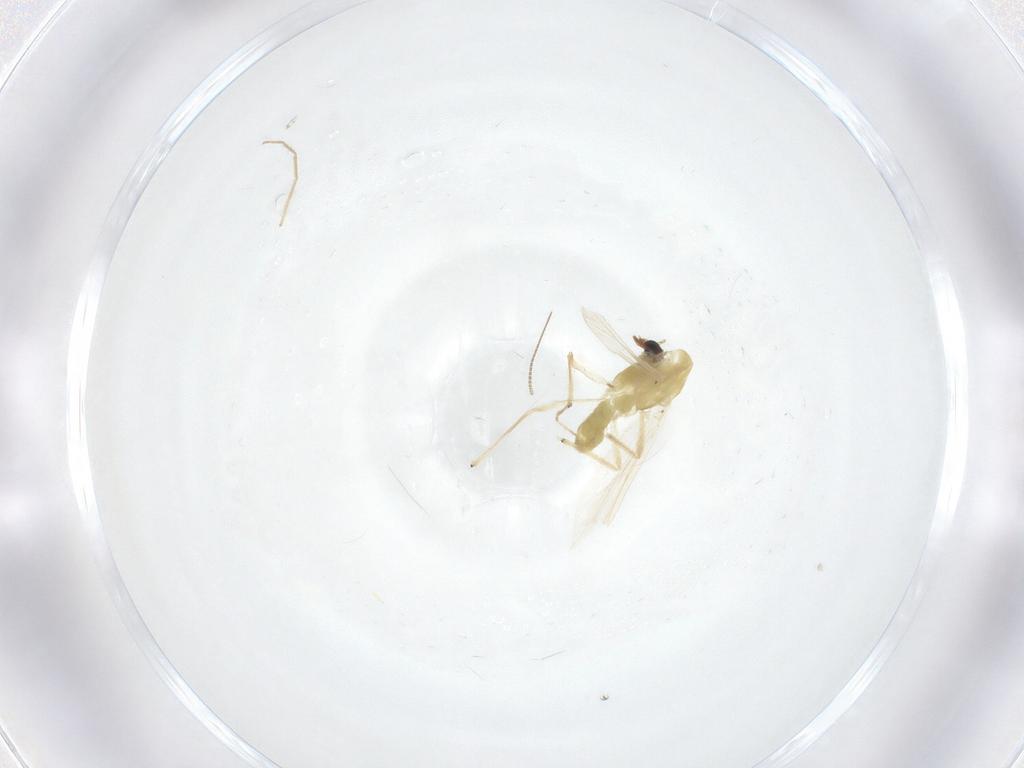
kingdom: Animalia
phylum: Arthropoda
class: Insecta
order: Diptera
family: Chironomidae
